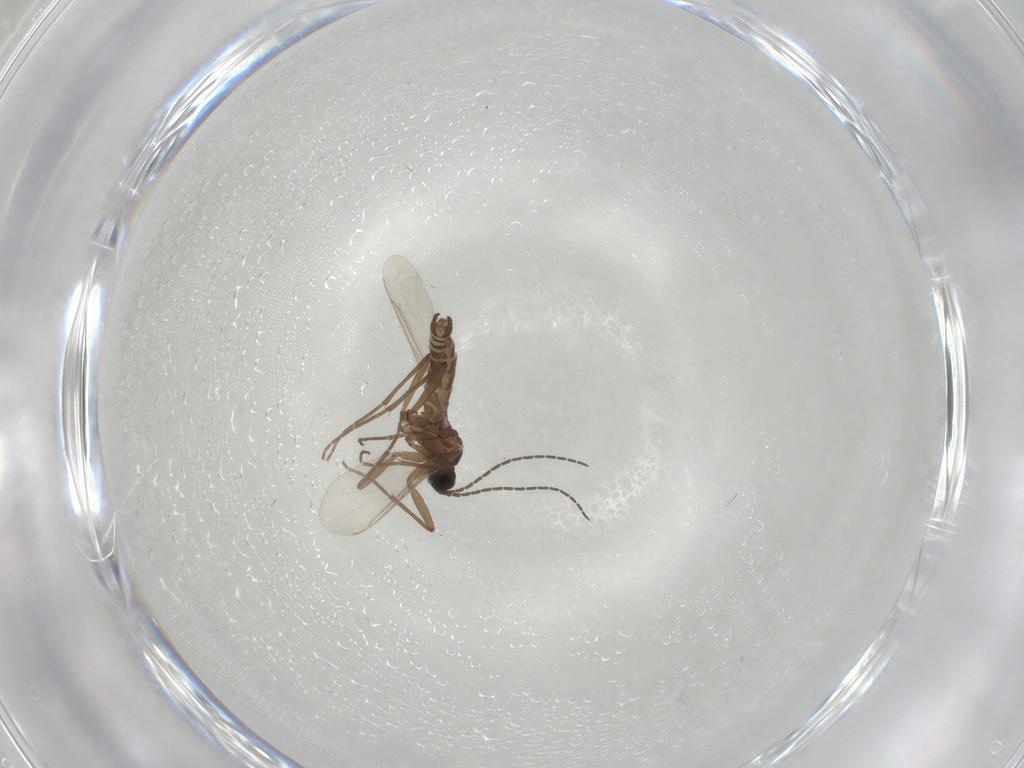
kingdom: Animalia
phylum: Arthropoda
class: Insecta
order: Diptera
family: Sciaridae
